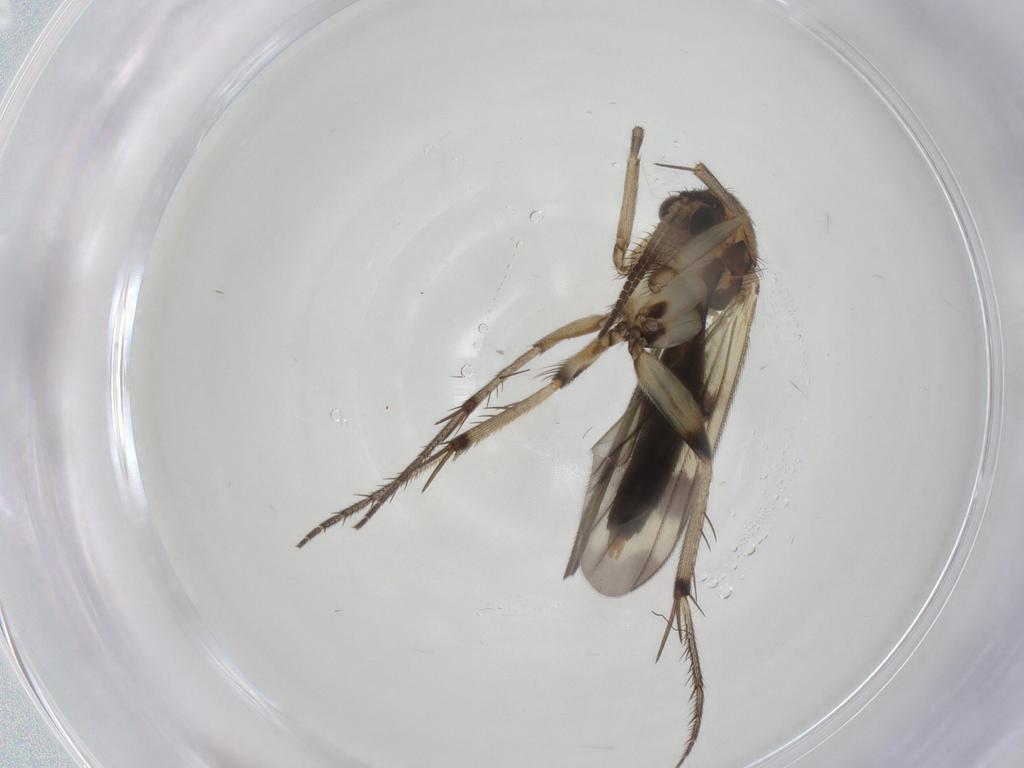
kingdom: Animalia
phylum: Arthropoda
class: Insecta
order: Diptera
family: Mycetophilidae
